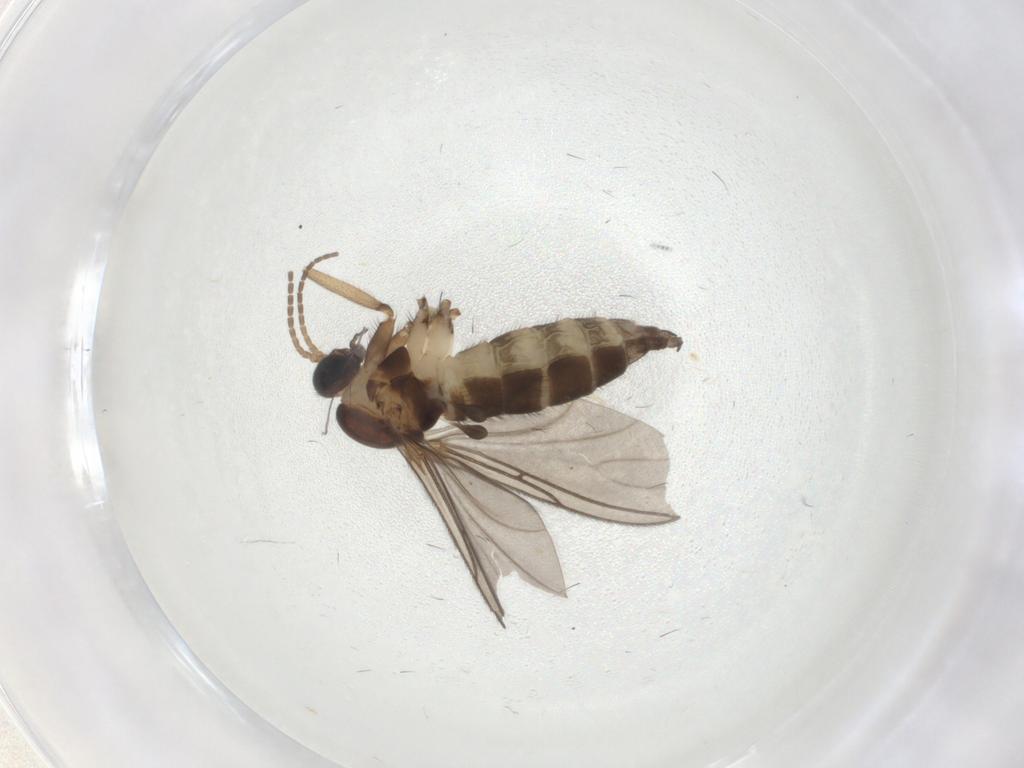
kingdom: Animalia
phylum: Arthropoda
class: Insecta
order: Diptera
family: Sciaridae
